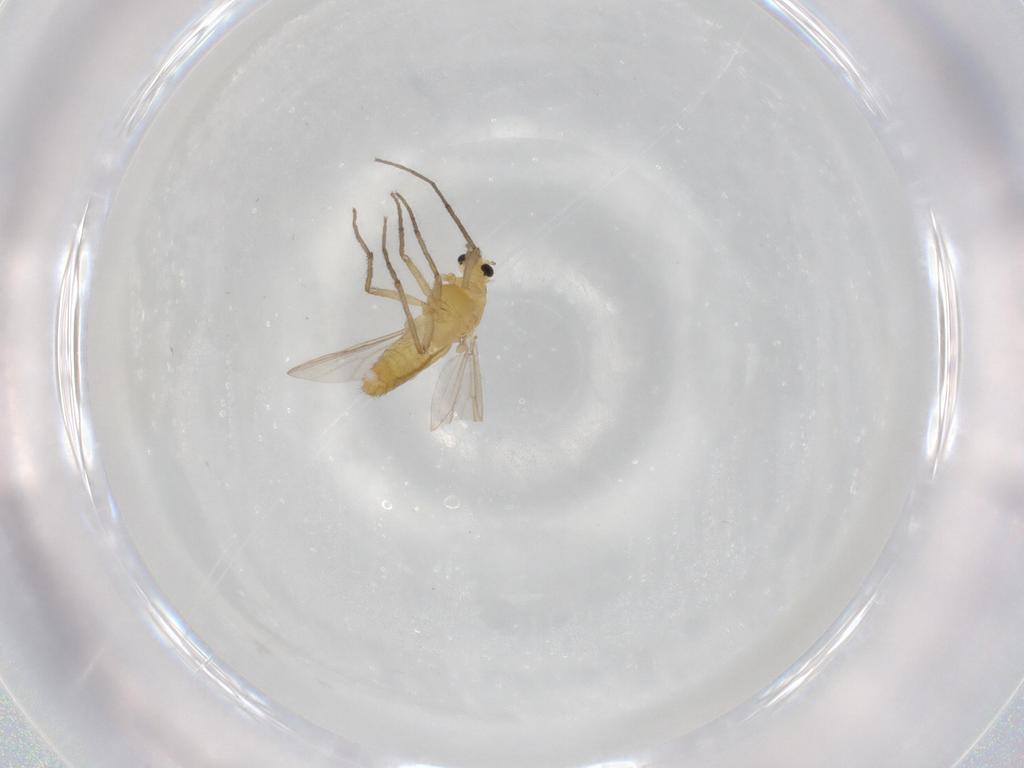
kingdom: Animalia
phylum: Arthropoda
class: Insecta
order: Diptera
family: Chironomidae
